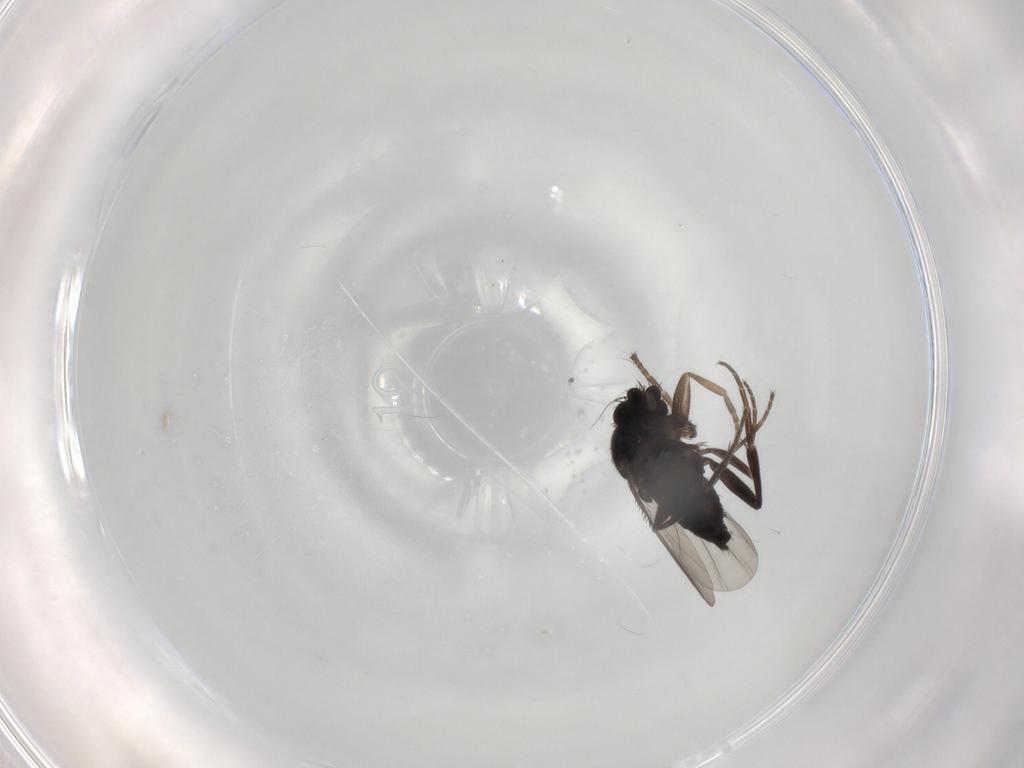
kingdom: Animalia
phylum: Arthropoda
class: Insecta
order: Diptera
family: Phoridae
